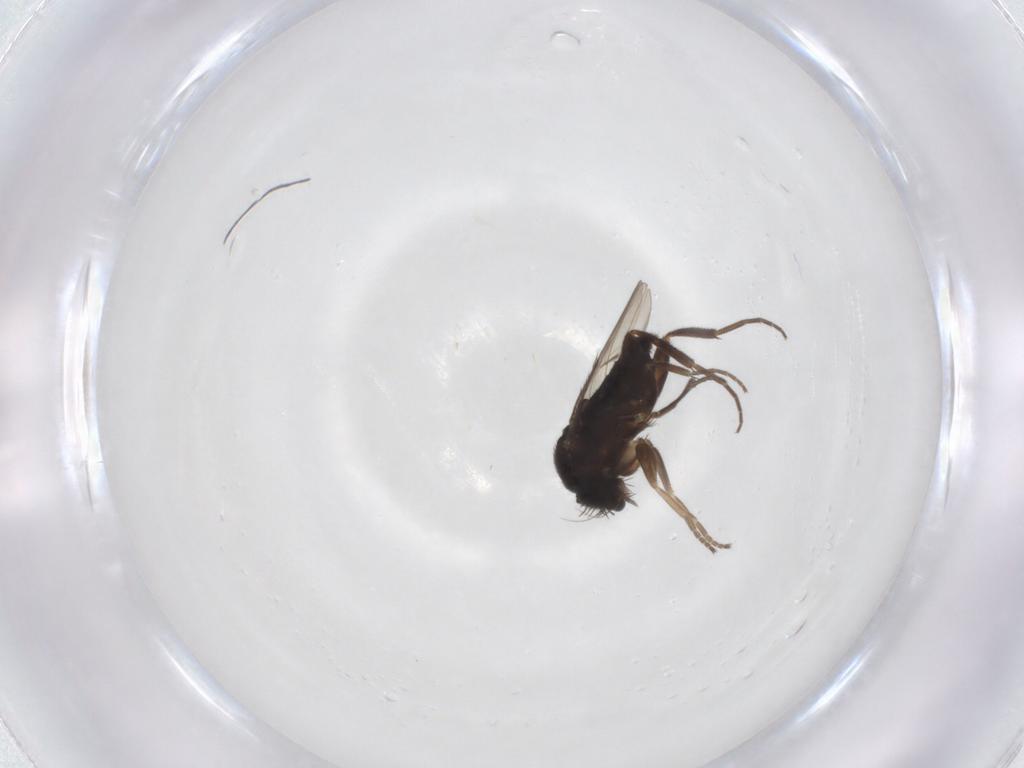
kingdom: Animalia
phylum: Arthropoda
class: Insecta
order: Diptera
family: Phoridae
